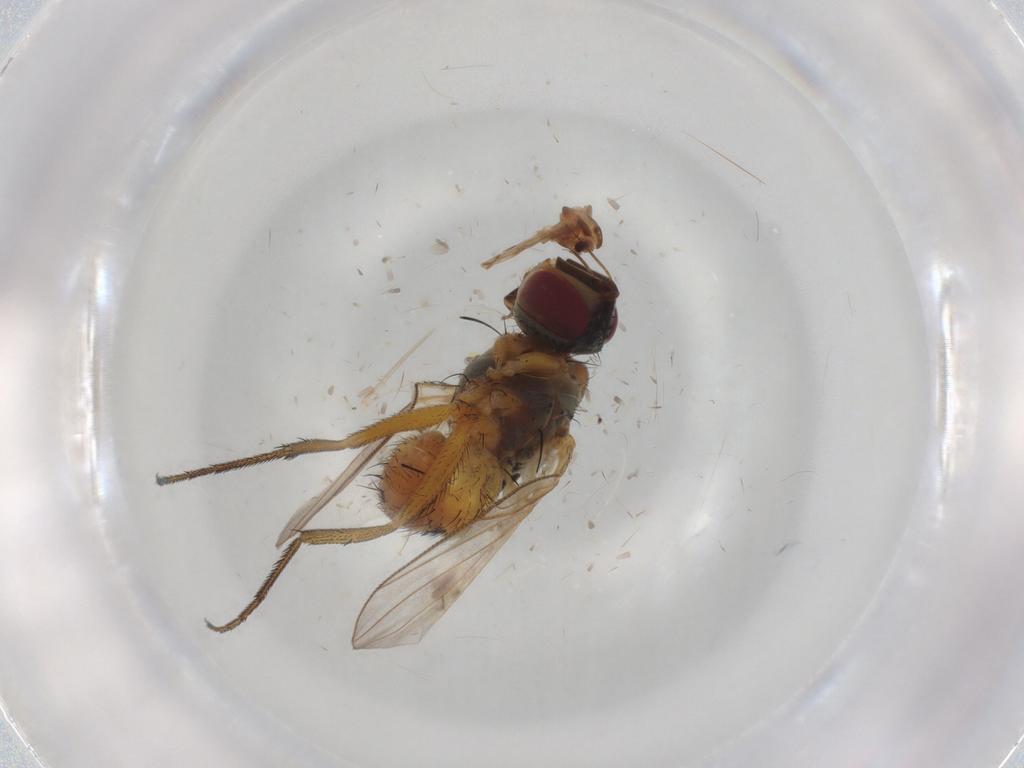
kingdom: Animalia
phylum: Arthropoda
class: Insecta
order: Diptera
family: Muscidae
